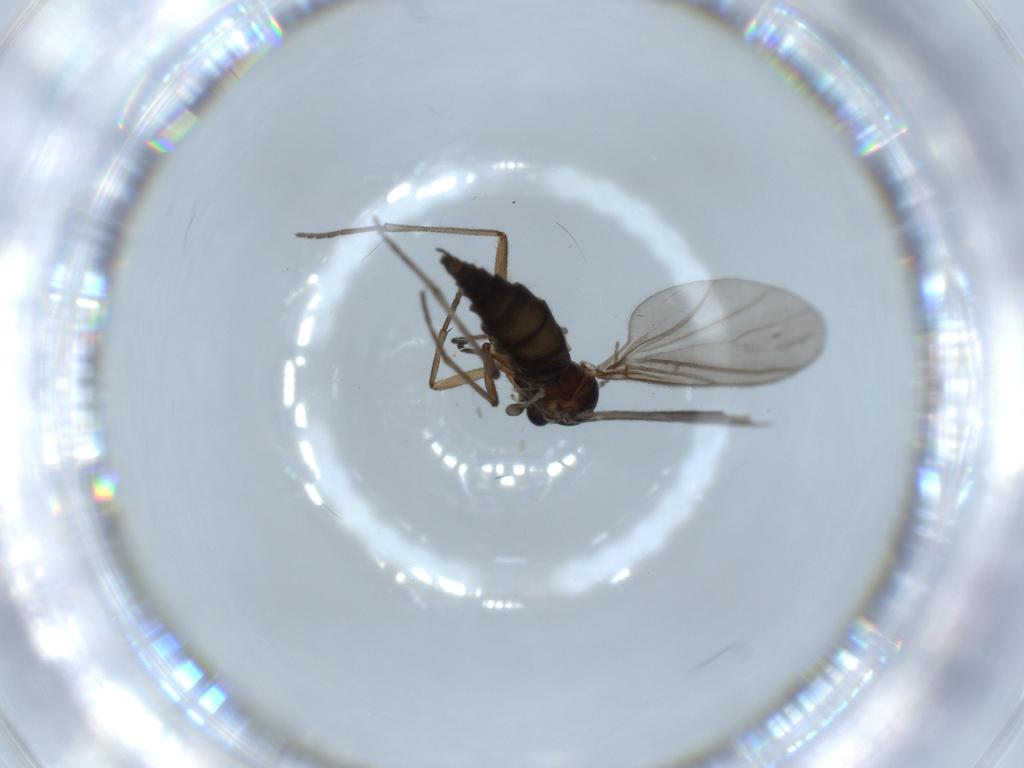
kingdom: Animalia
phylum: Arthropoda
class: Insecta
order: Diptera
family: Sciaridae
